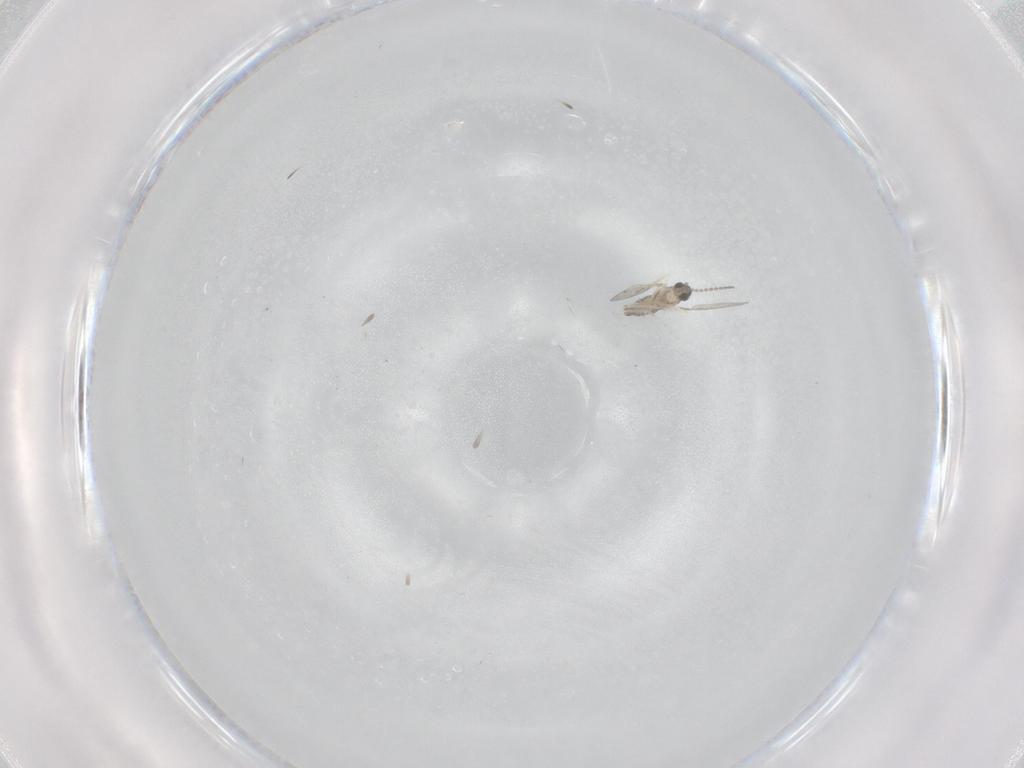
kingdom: Animalia
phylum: Arthropoda
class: Insecta
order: Diptera
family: Cecidomyiidae
